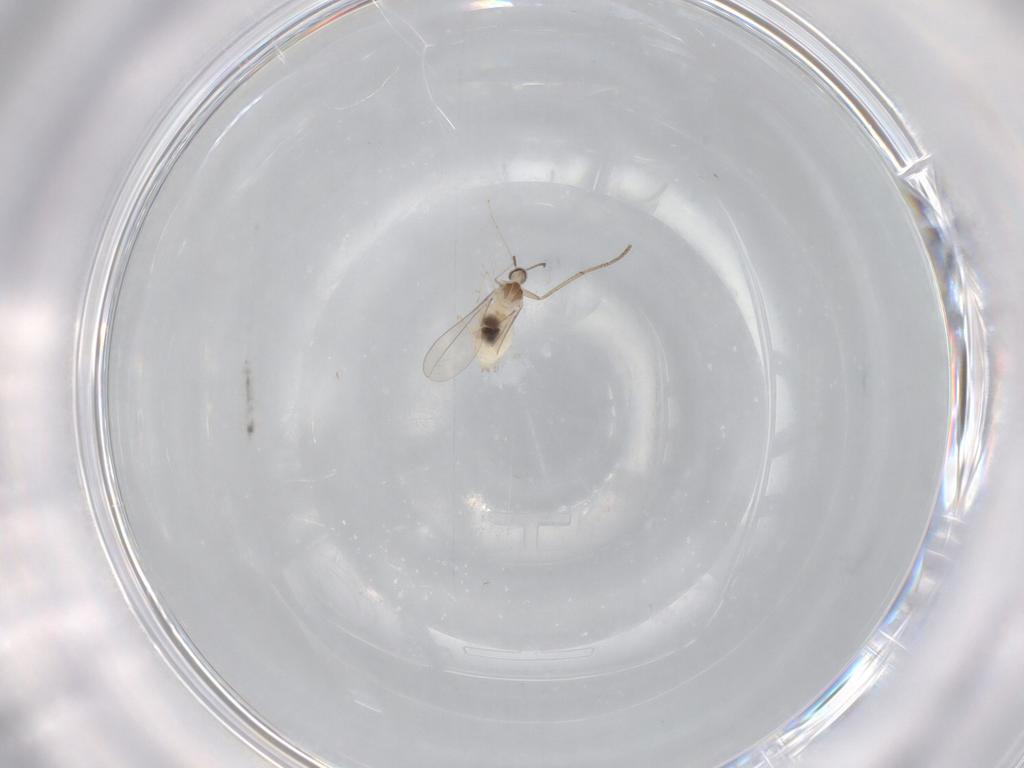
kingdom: Animalia
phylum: Arthropoda
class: Insecta
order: Diptera
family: Cecidomyiidae
